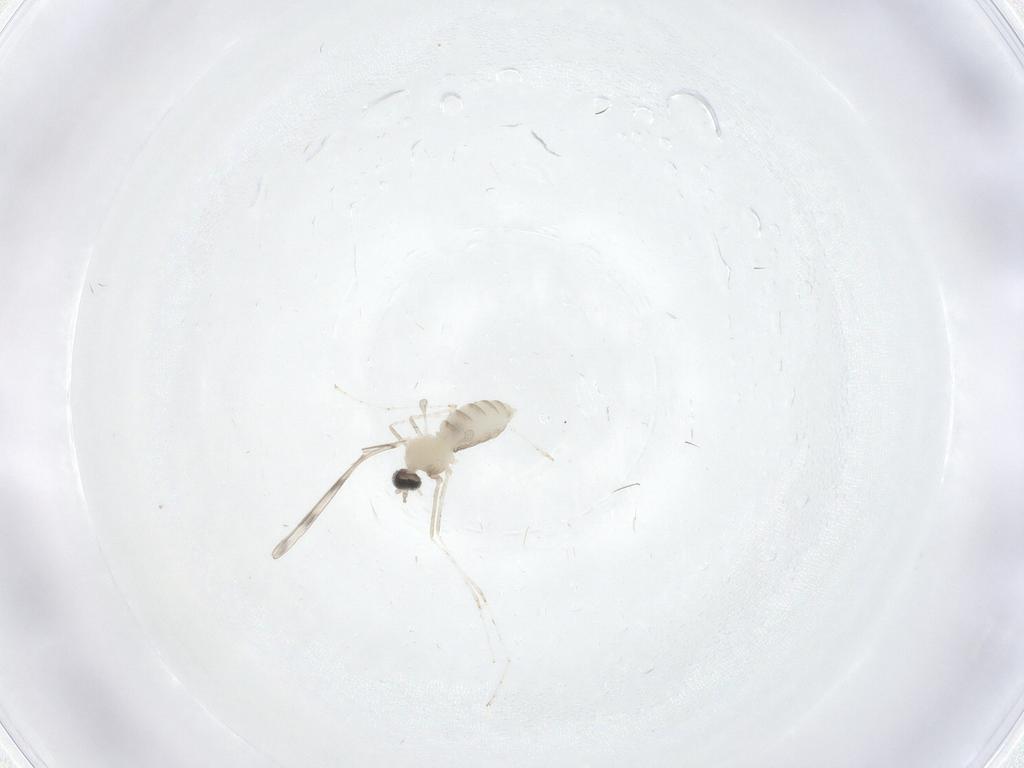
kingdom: Animalia
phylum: Arthropoda
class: Insecta
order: Diptera
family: Cecidomyiidae
